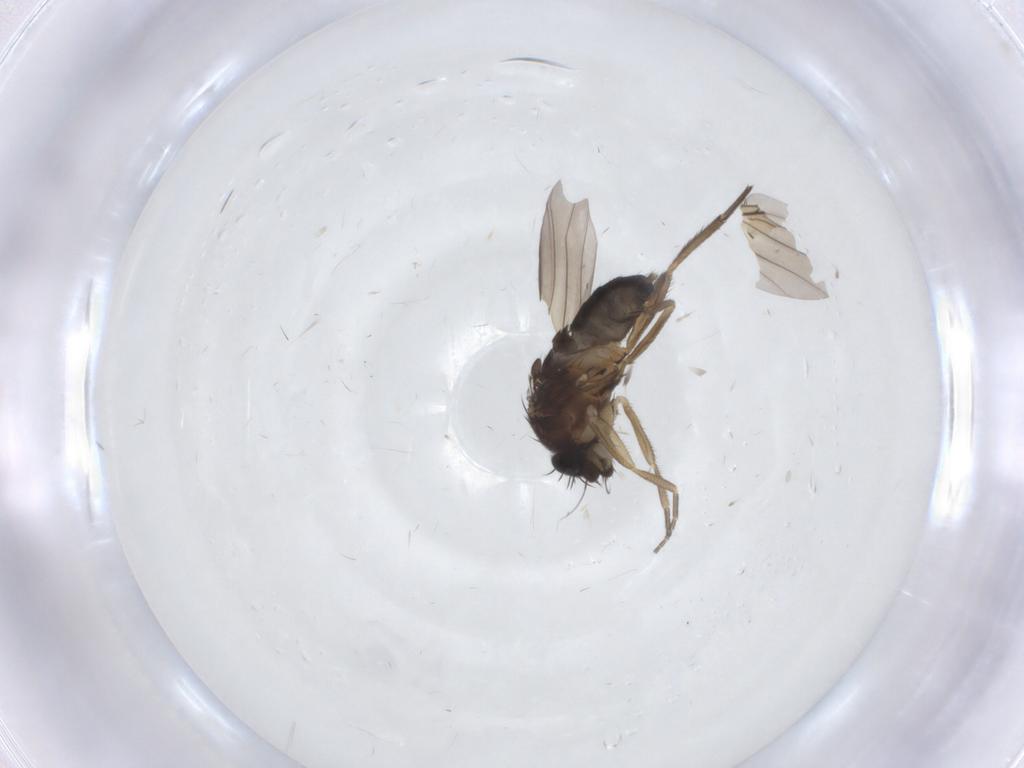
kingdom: Animalia
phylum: Arthropoda
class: Insecta
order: Diptera
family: Phoridae
